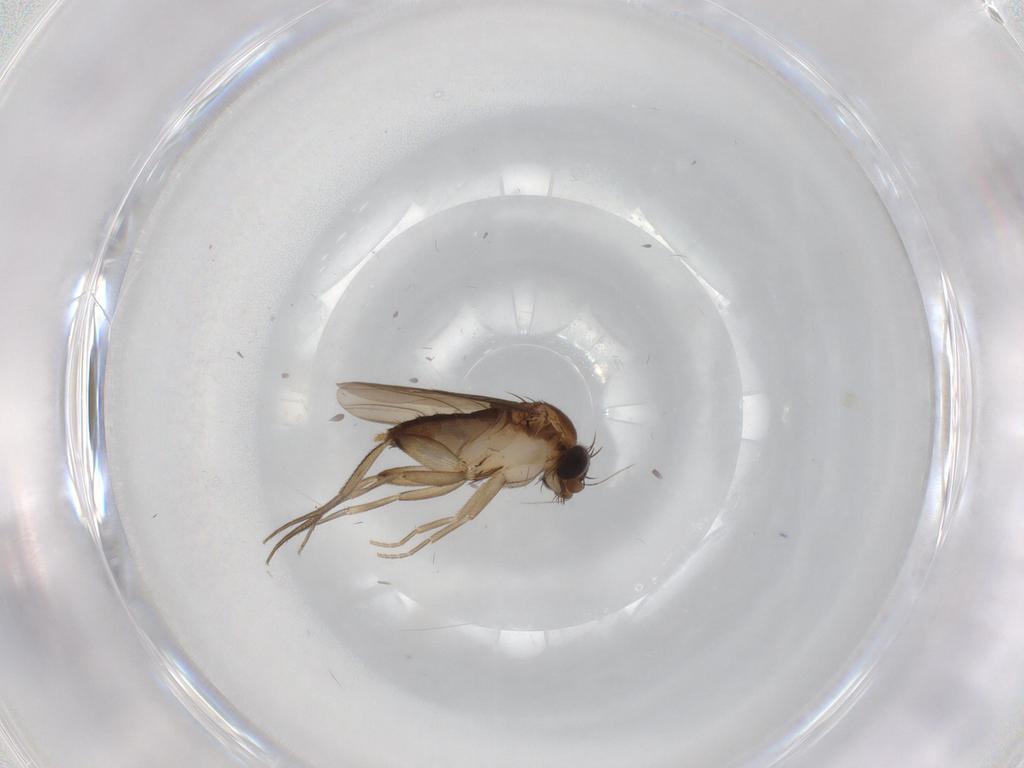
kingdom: Animalia
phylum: Arthropoda
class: Insecta
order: Diptera
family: Phoridae
